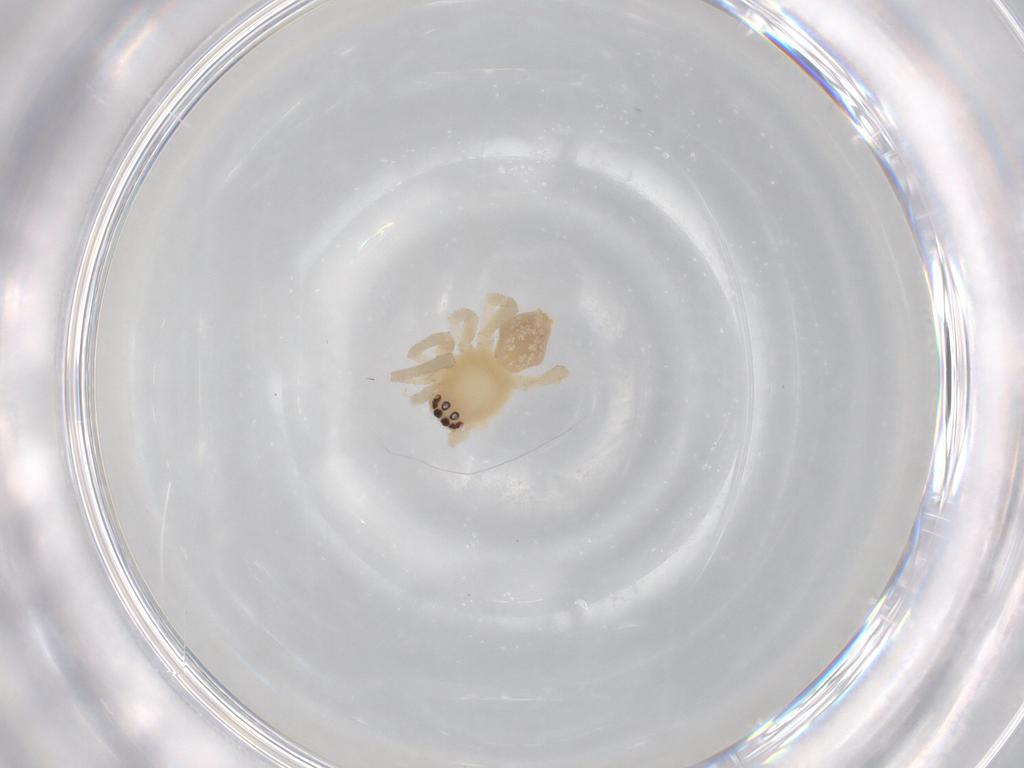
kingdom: Animalia
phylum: Arthropoda
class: Arachnida
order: Araneae
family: Cheiracanthiidae
